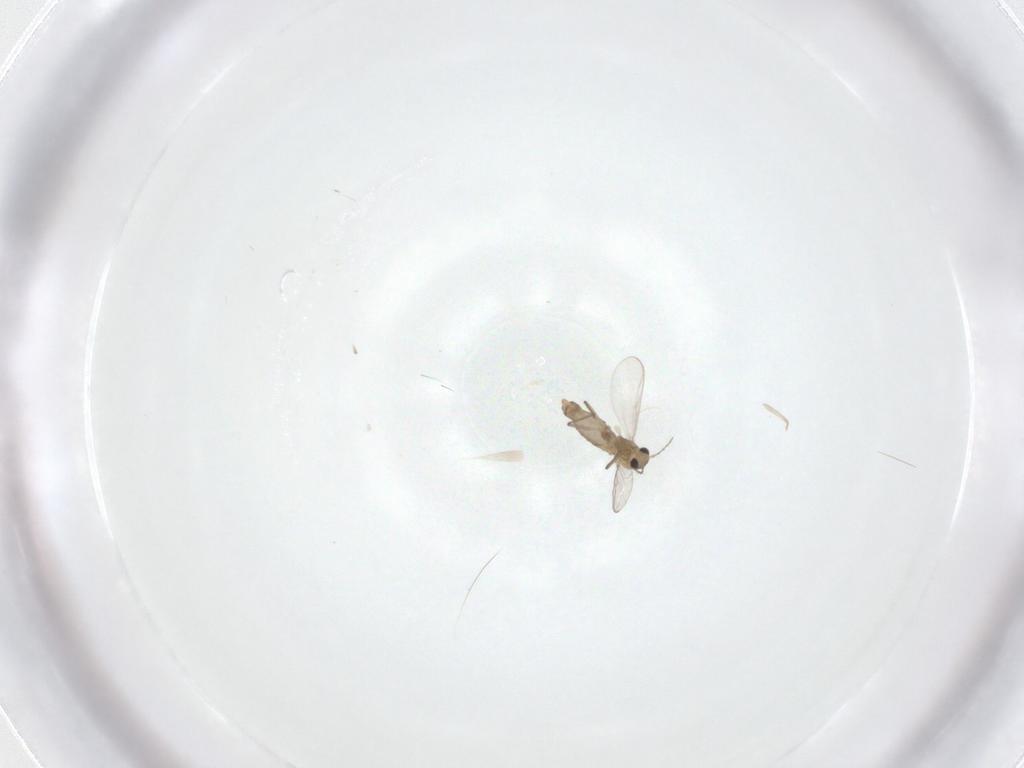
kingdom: Animalia
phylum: Arthropoda
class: Insecta
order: Diptera
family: Chironomidae
